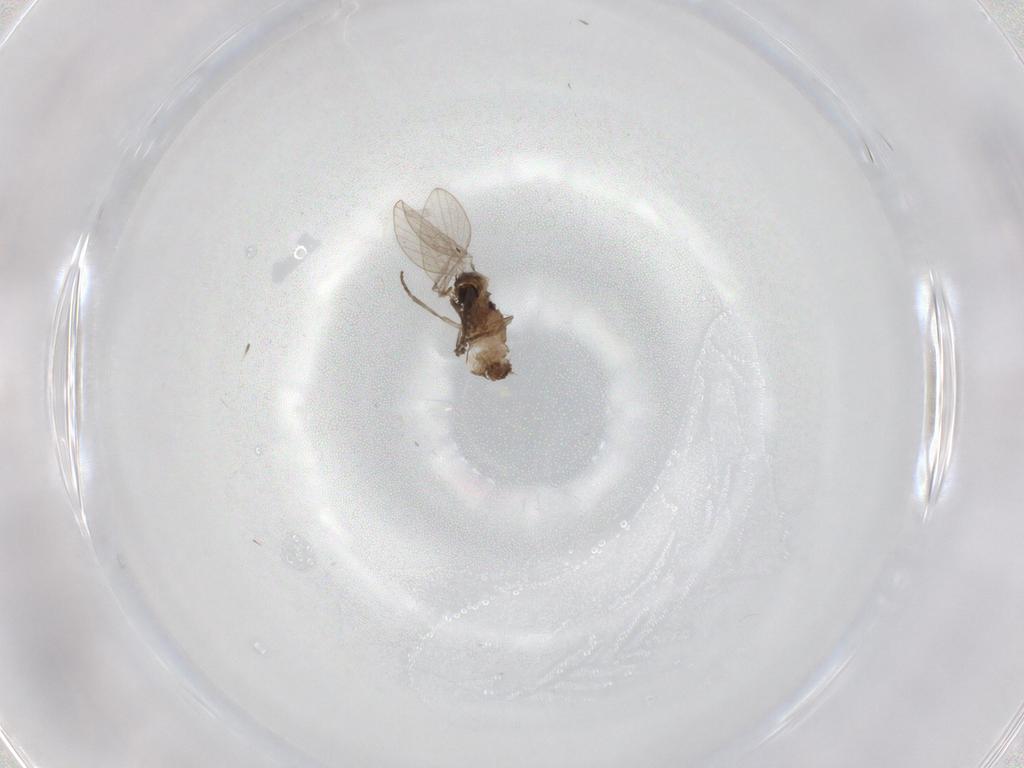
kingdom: Animalia
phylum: Arthropoda
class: Insecta
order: Diptera
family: Psychodidae
